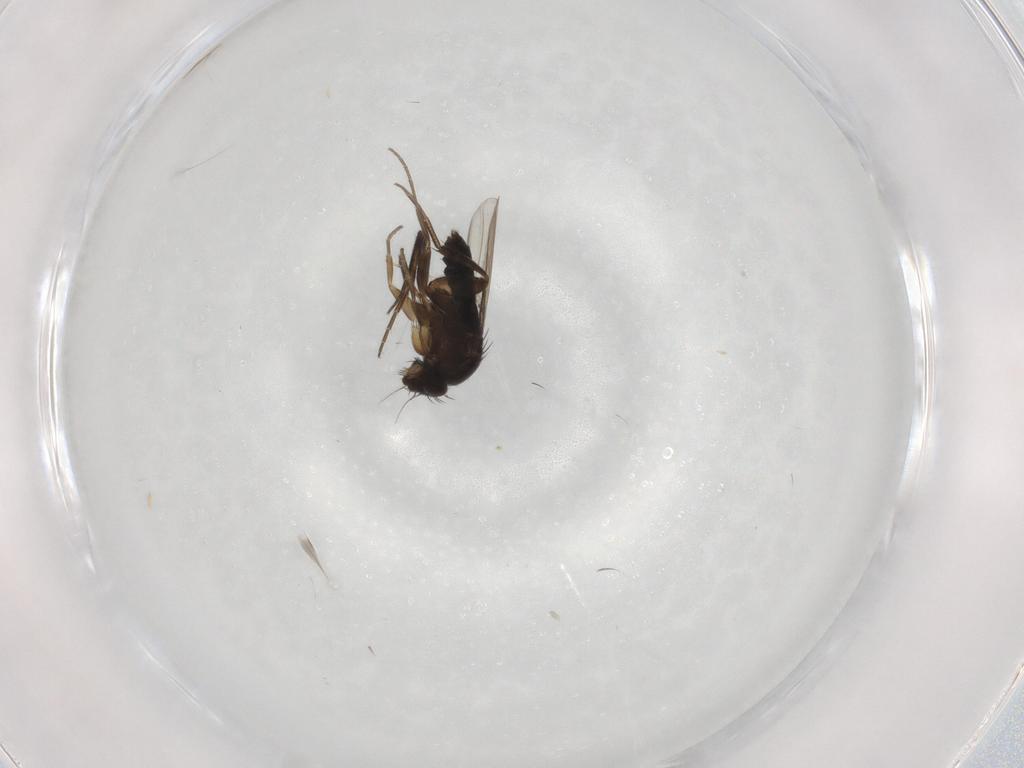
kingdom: Animalia
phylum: Arthropoda
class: Insecta
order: Diptera
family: Phoridae
